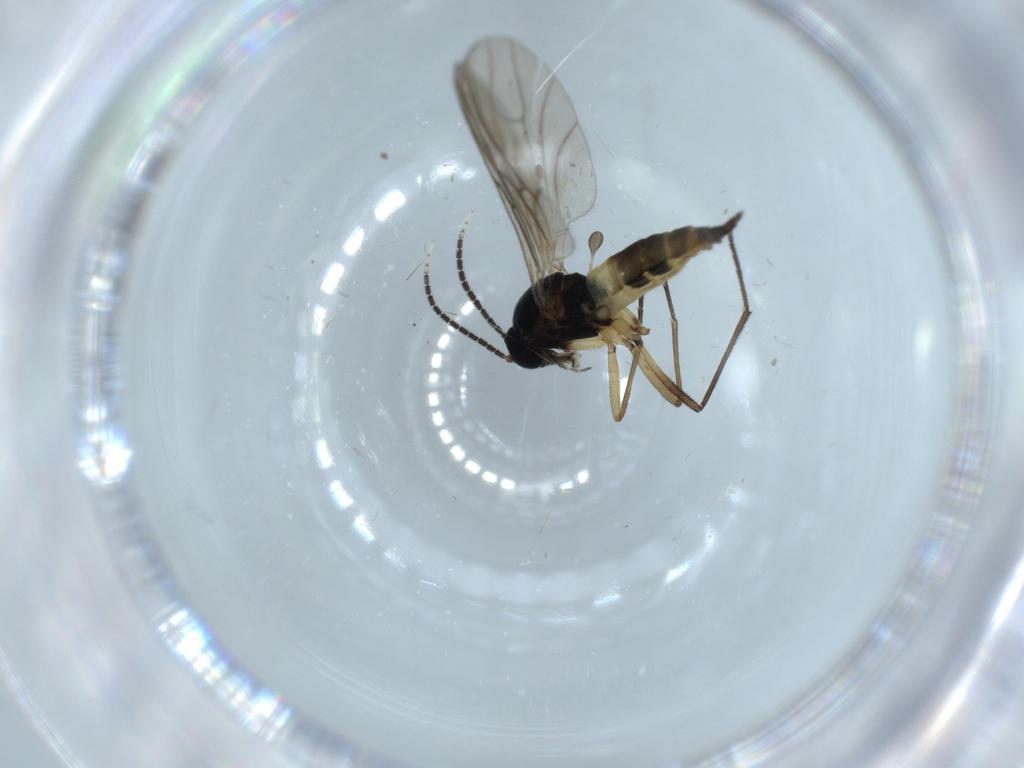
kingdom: Animalia
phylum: Arthropoda
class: Insecta
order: Diptera
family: Sciaridae
